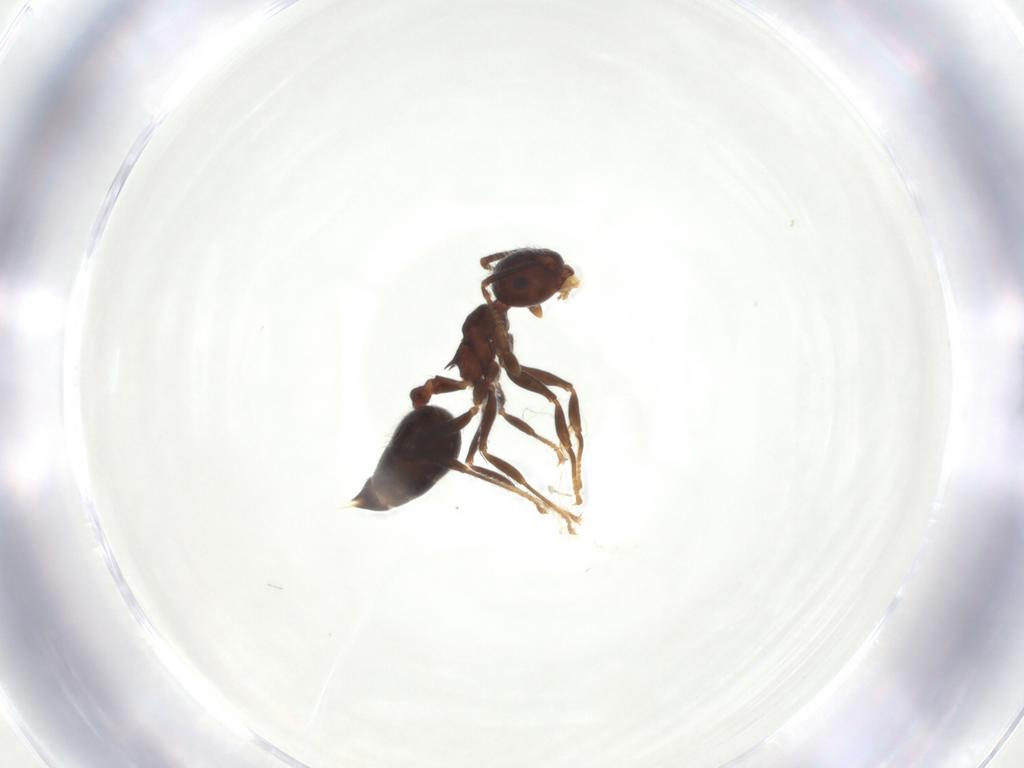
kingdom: Animalia
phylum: Arthropoda
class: Insecta
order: Hymenoptera
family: Formicidae
